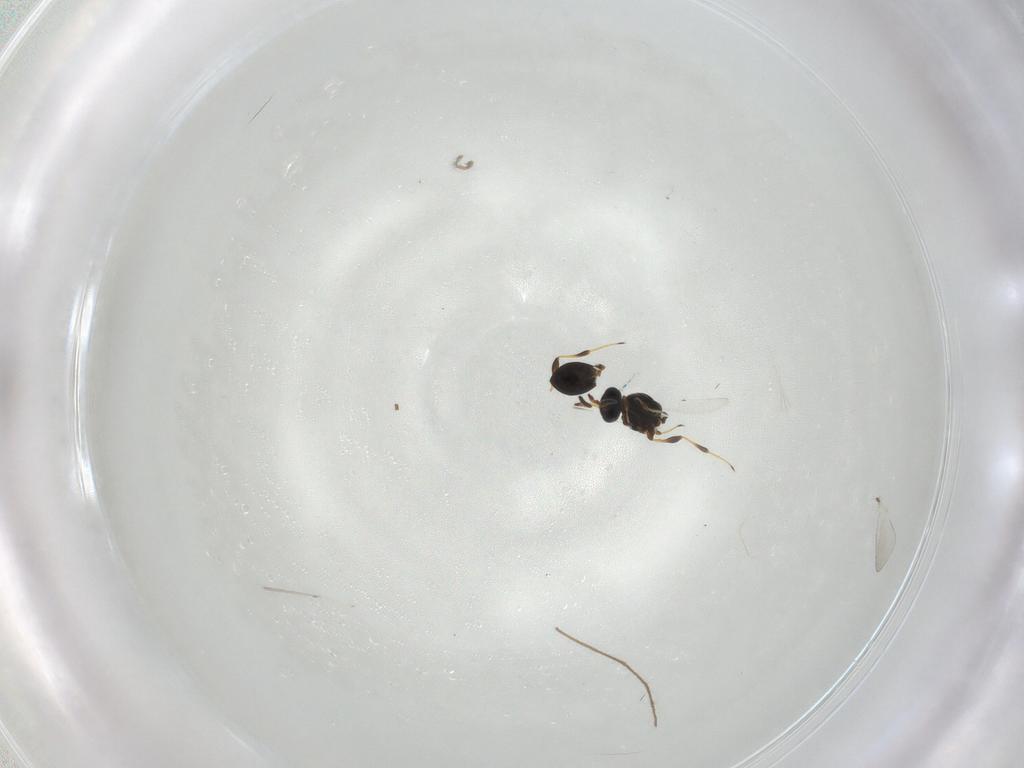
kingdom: Animalia
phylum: Arthropoda
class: Insecta
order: Hymenoptera
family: Platygastridae
